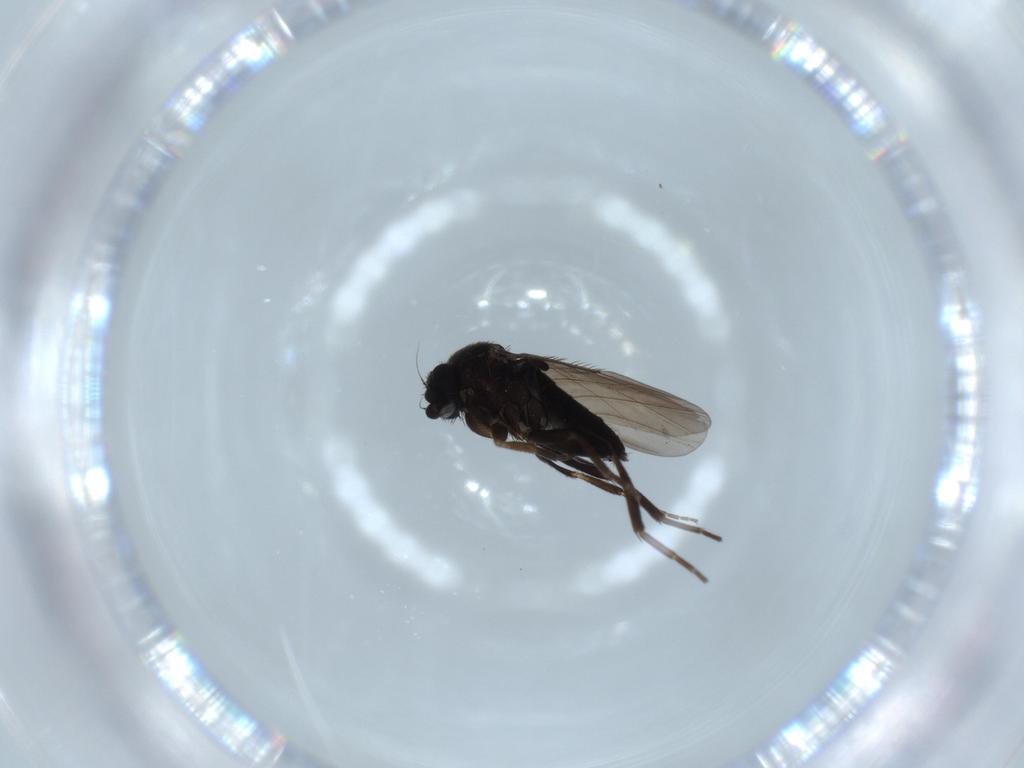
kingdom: Animalia
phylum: Arthropoda
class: Insecta
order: Diptera
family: Phoridae
